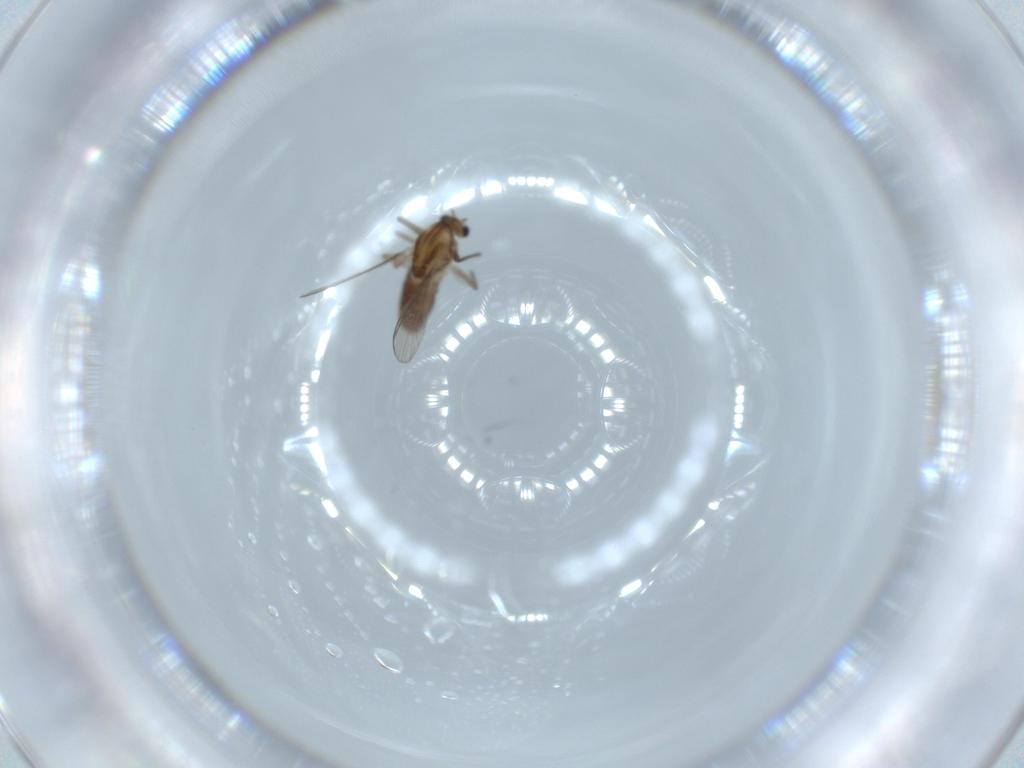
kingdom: Animalia
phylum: Arthropoda
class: Insecta
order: Diptera
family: Chironomidae
